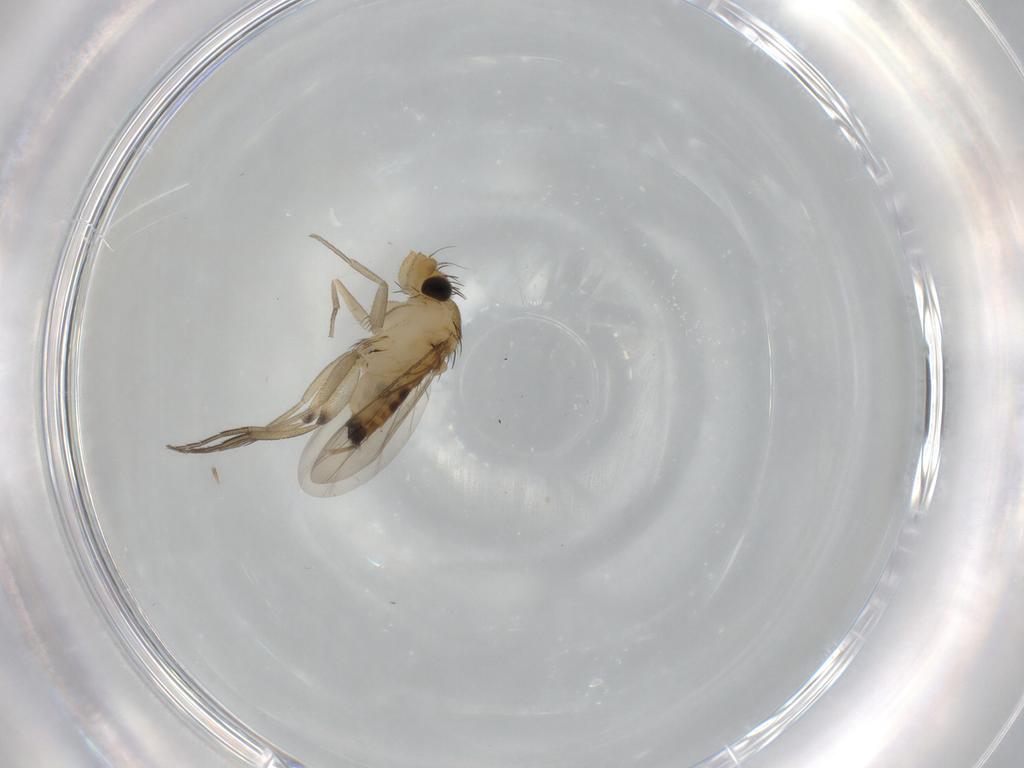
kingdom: Animalia
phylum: Arthropoda
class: Insecta
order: Diptera
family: Phoridae
